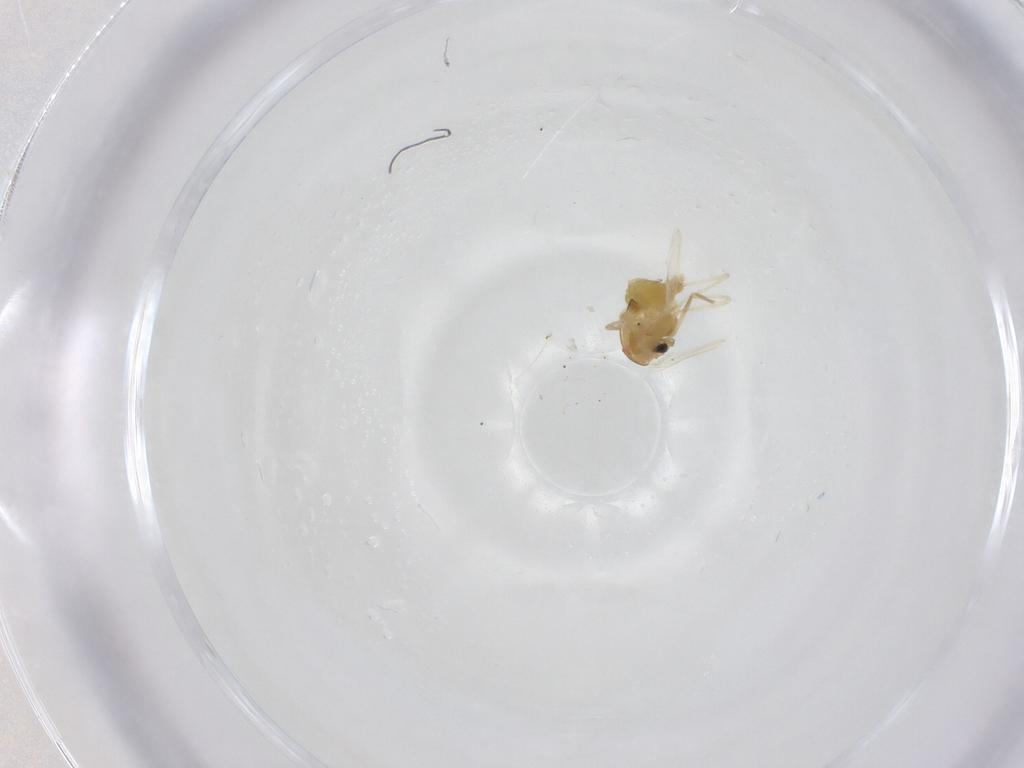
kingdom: Animalia
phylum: Arthropoda
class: Insecta
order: Diptera
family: Chironomidae
